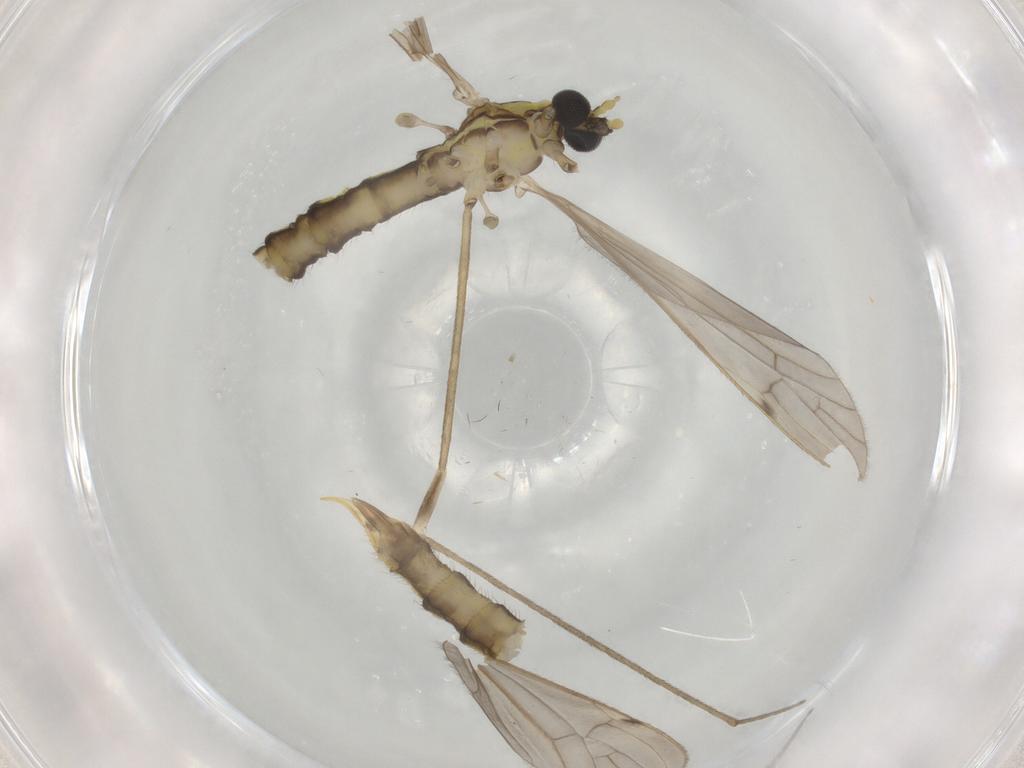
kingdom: Animalia
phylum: Arthropoda
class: Insecta
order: Diptera
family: Limoniidae
